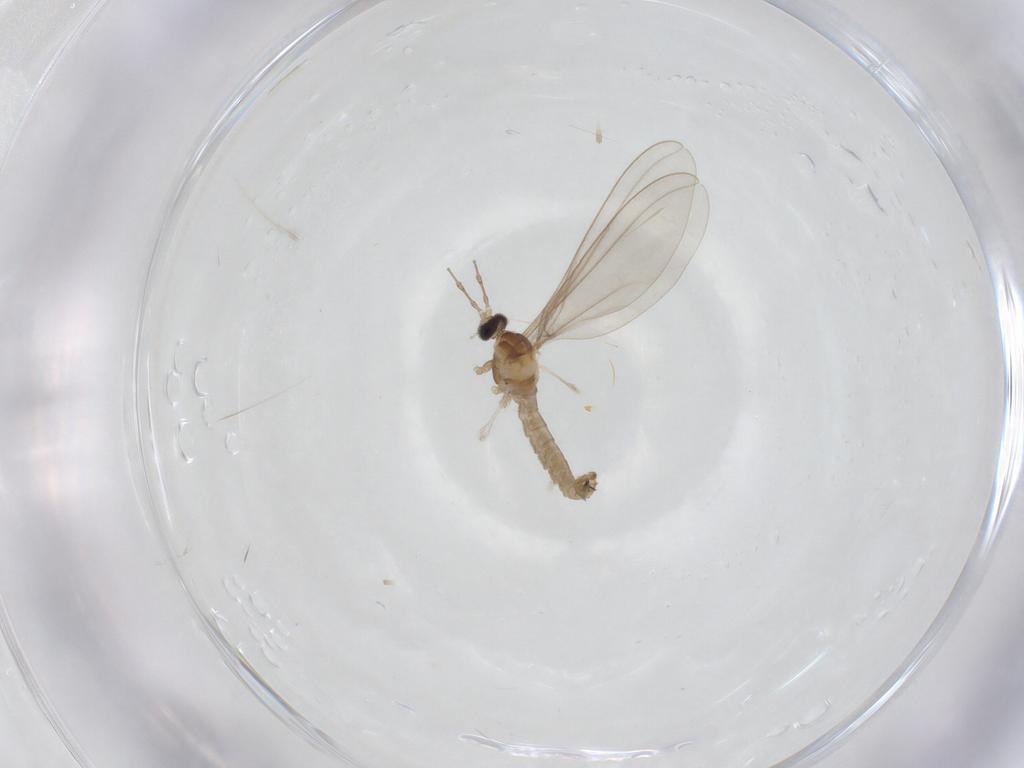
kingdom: Animalia
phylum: Arthropoda
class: Insecta
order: Diptera
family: Cecidomyiidae
